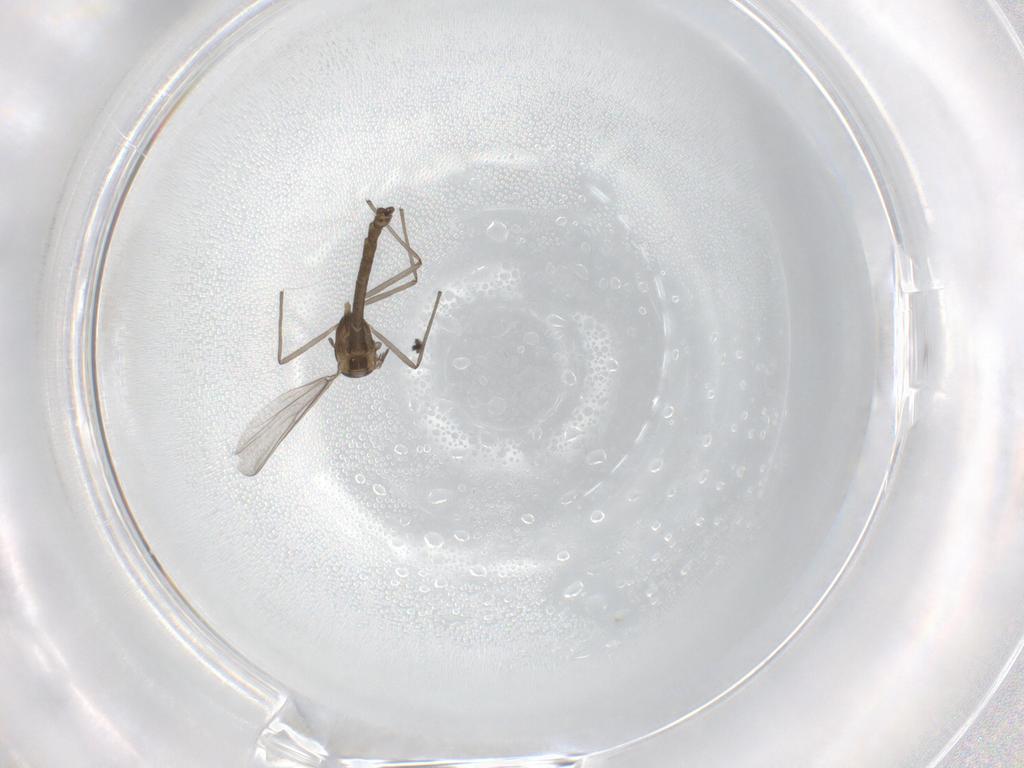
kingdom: Animalia
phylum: Arthropoda
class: Insecta
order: Diptera
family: Chironomidae
